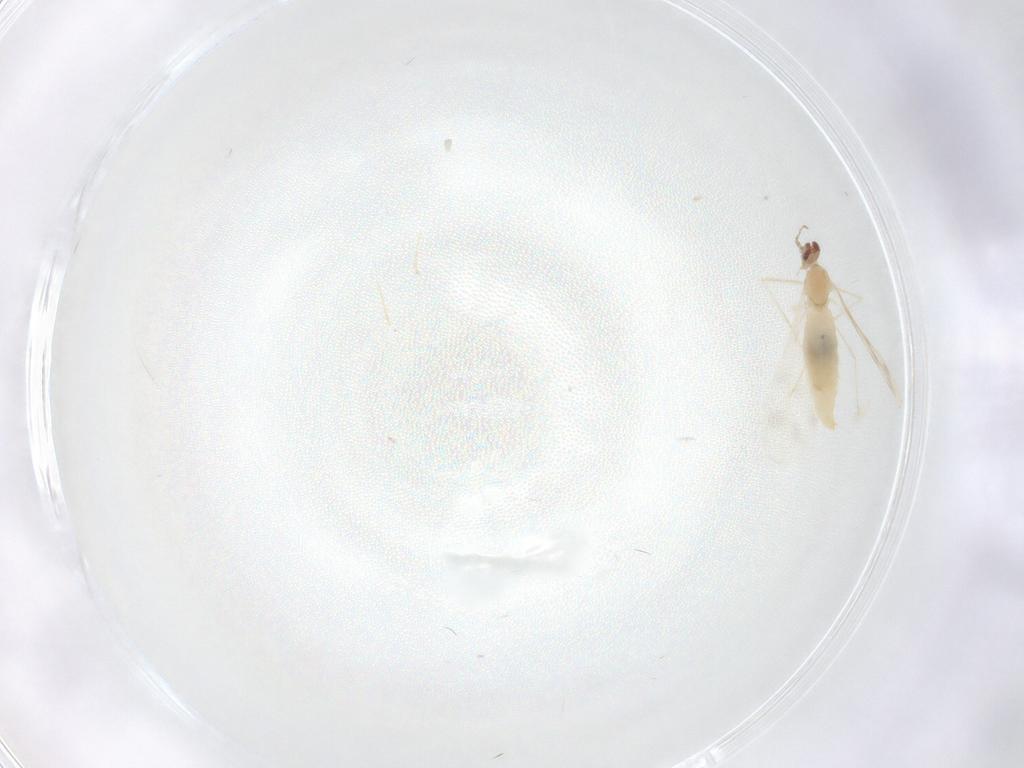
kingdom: Animalia
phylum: Arthropoda
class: Insecta
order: Diptera
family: Cecidomyiidae
